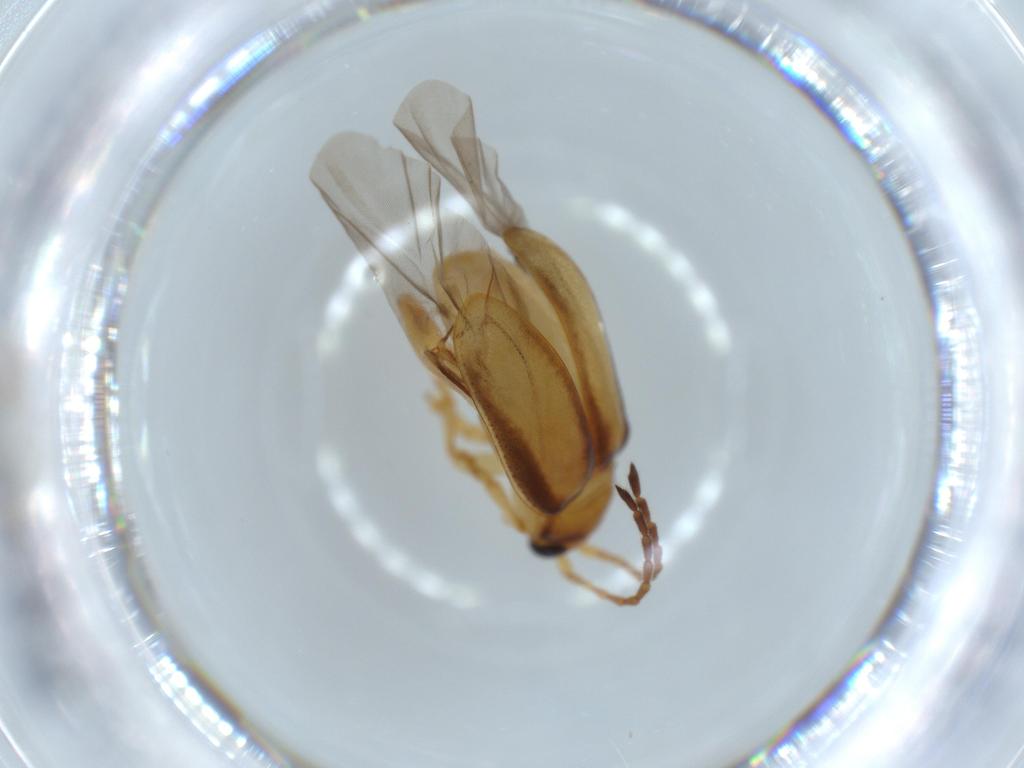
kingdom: Animalia
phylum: Arthropoda
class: Insecta
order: Coleoptera
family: Chrysomelidae
